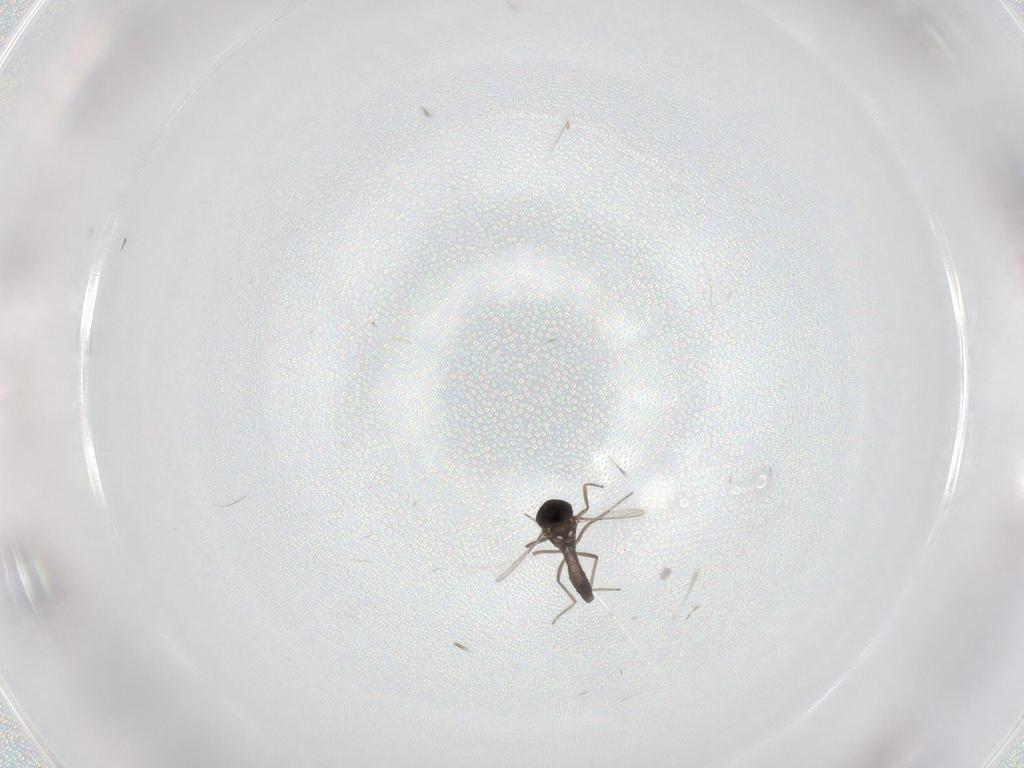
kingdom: Animalia
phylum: Arthropoda
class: Insecta
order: Diptera
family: Ceratopogonidae
